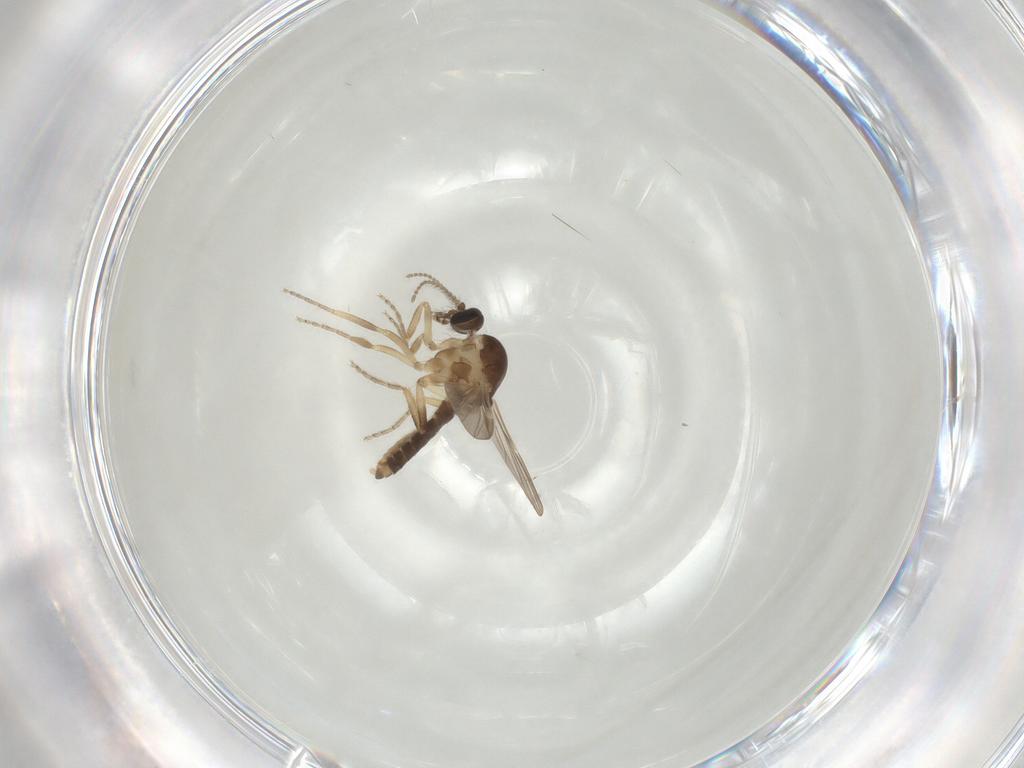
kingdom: Animalia
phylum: Arthropoda
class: Insecta
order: Diptera
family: Ceratopogonidae
